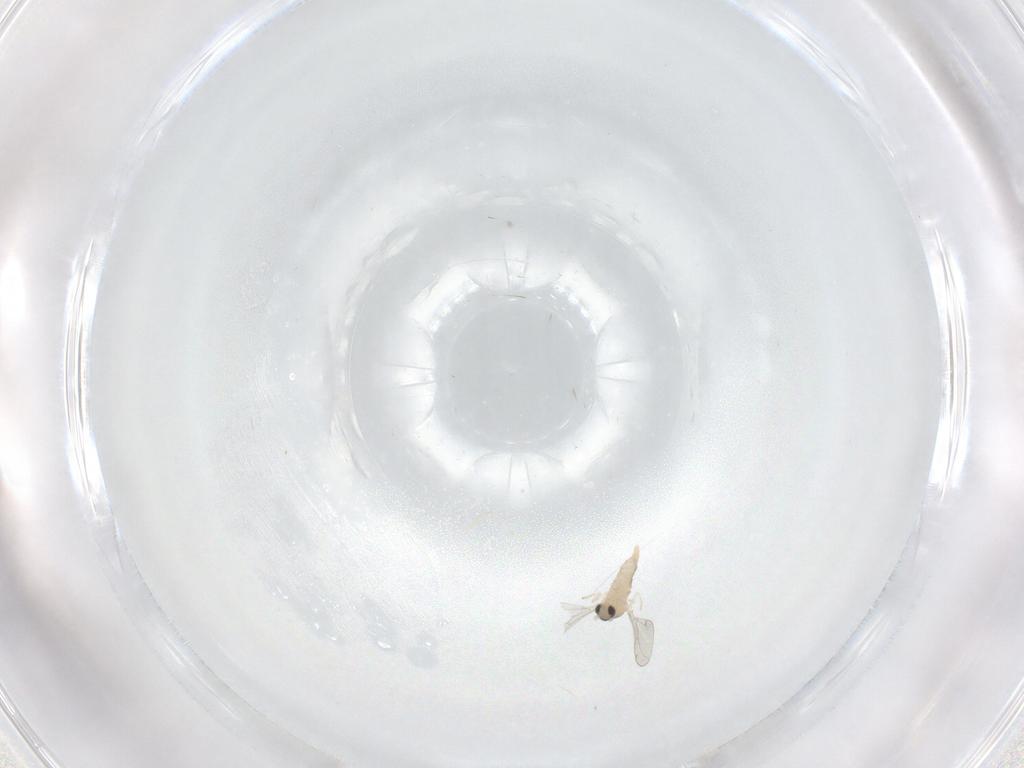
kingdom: Animalia
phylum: Arthropoda
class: Insecta
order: Diptera
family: Cecidomyiidae
